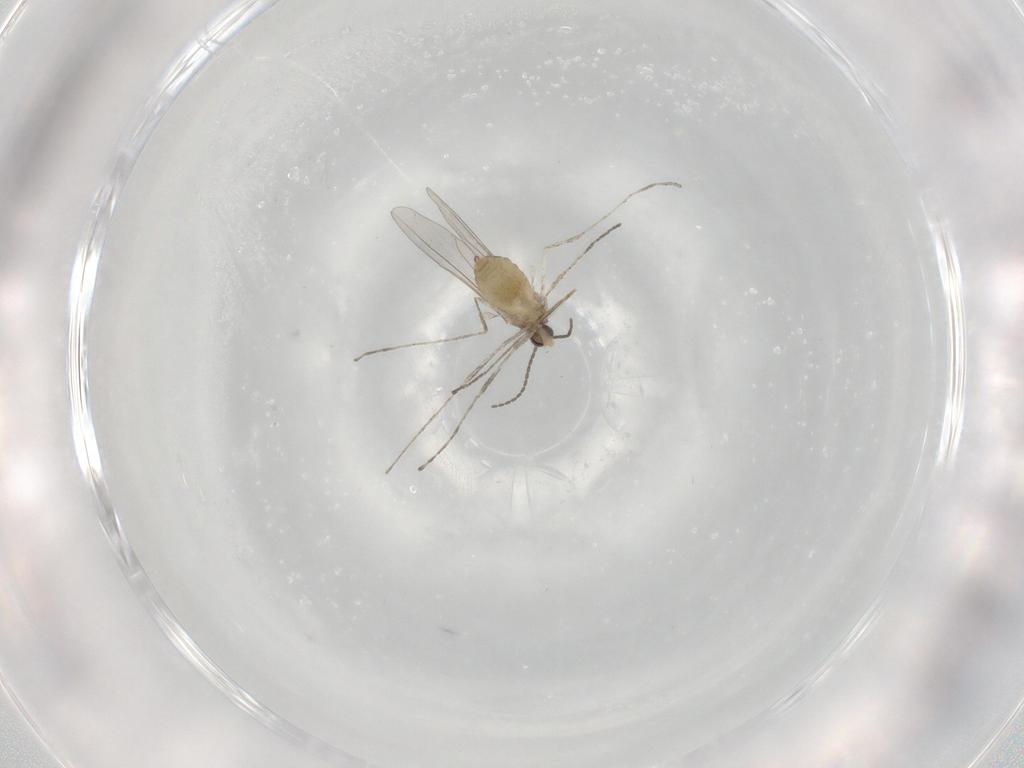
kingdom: Animalia
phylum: Arthropoda
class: Insecta
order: Diptera
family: Cecidomyiidae
